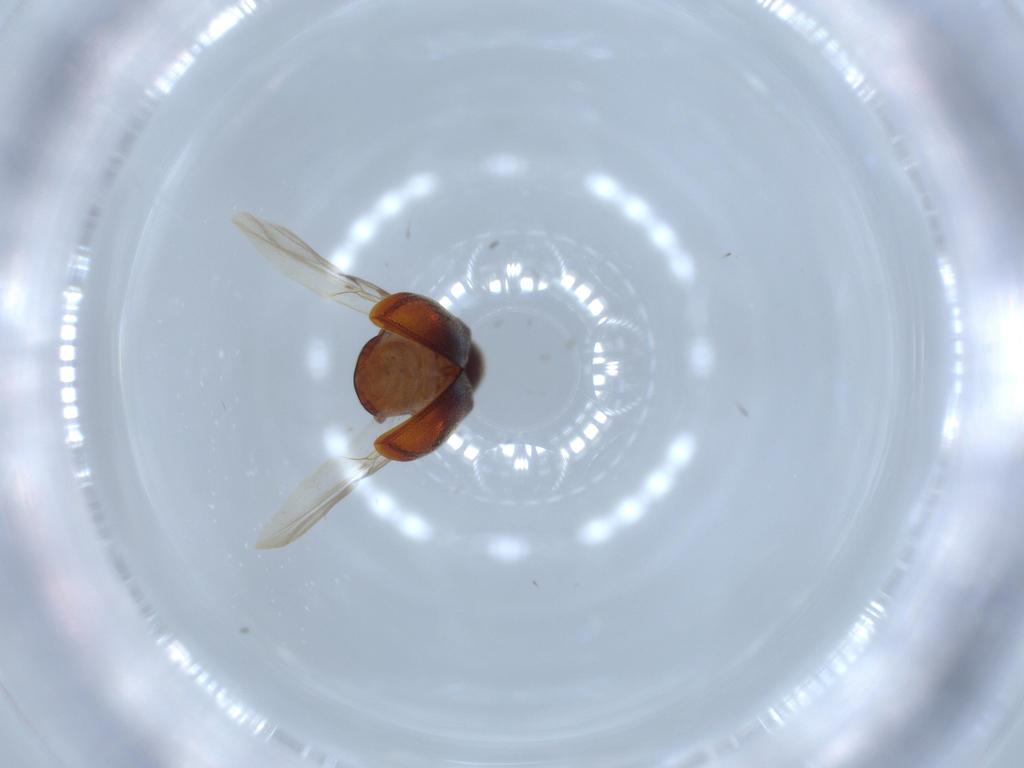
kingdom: Animalia
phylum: Arthropoda
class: Insecta
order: Coleoptera
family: Ptinidae
